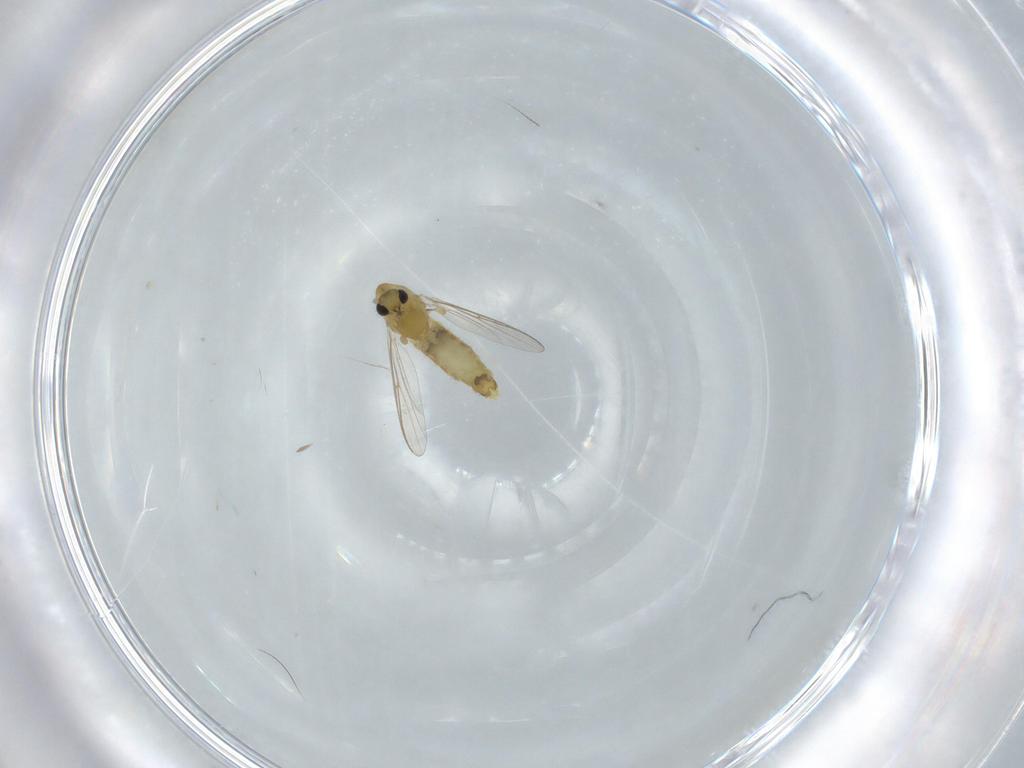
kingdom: Animalia
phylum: Arthropoda
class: Insecta
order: Diptera
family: Chironomidae
